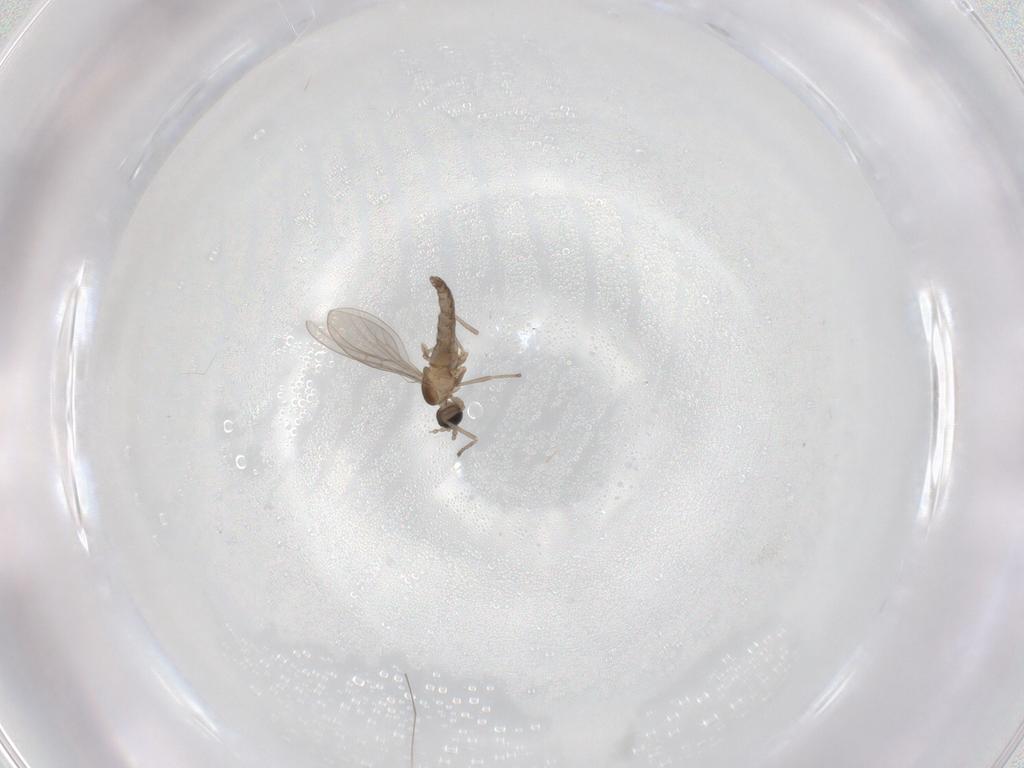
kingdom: Animalia
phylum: Arthropoda
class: Insecta
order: Diptera
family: Cecidomyiidae
